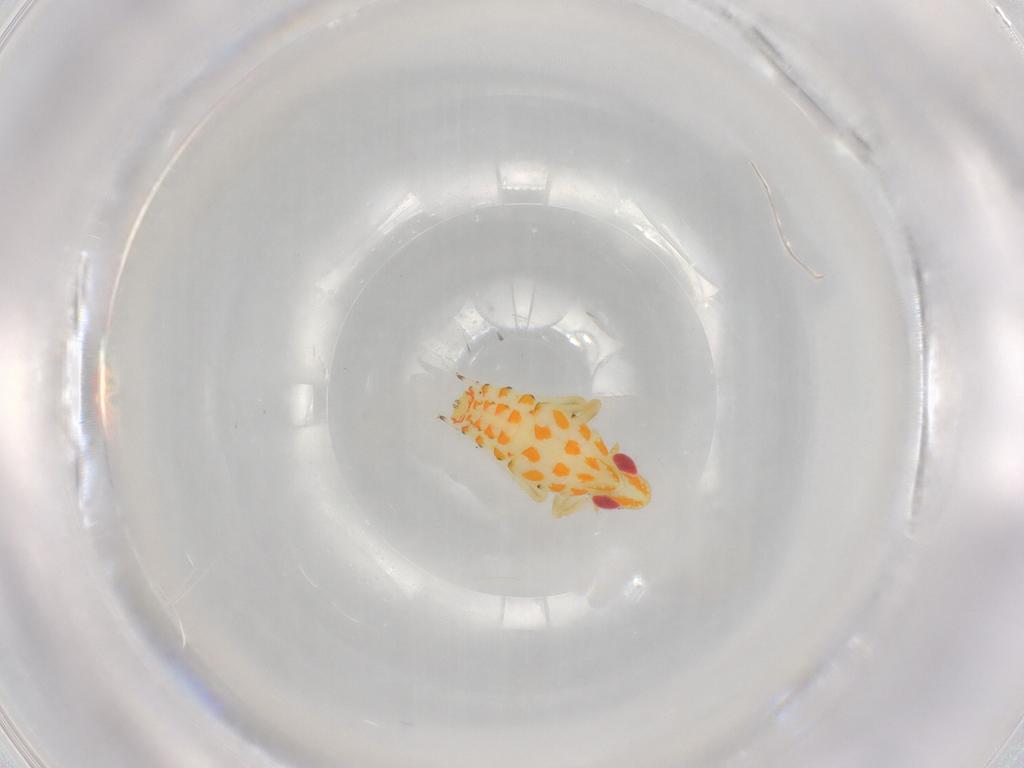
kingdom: Animalia
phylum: Arthropoda
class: Insecta
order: Hemiptera
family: Tropiduchidae
